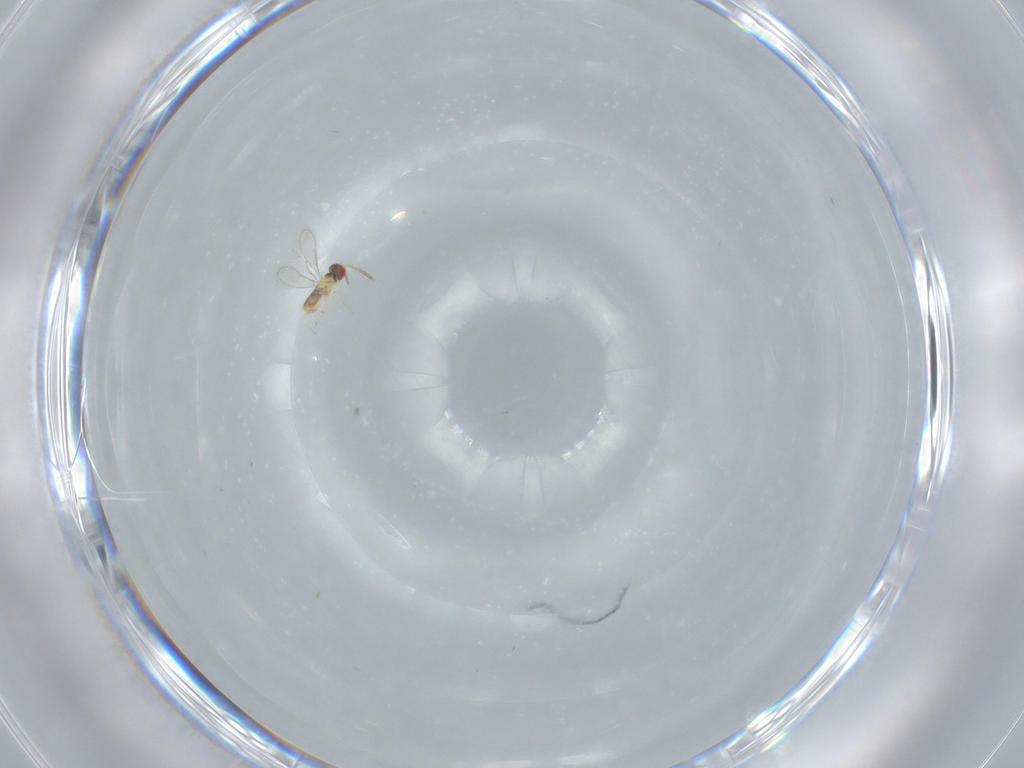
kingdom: Animalia
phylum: Arthropoda
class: Insecta
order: Hymenoptera
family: Aphelinidae
